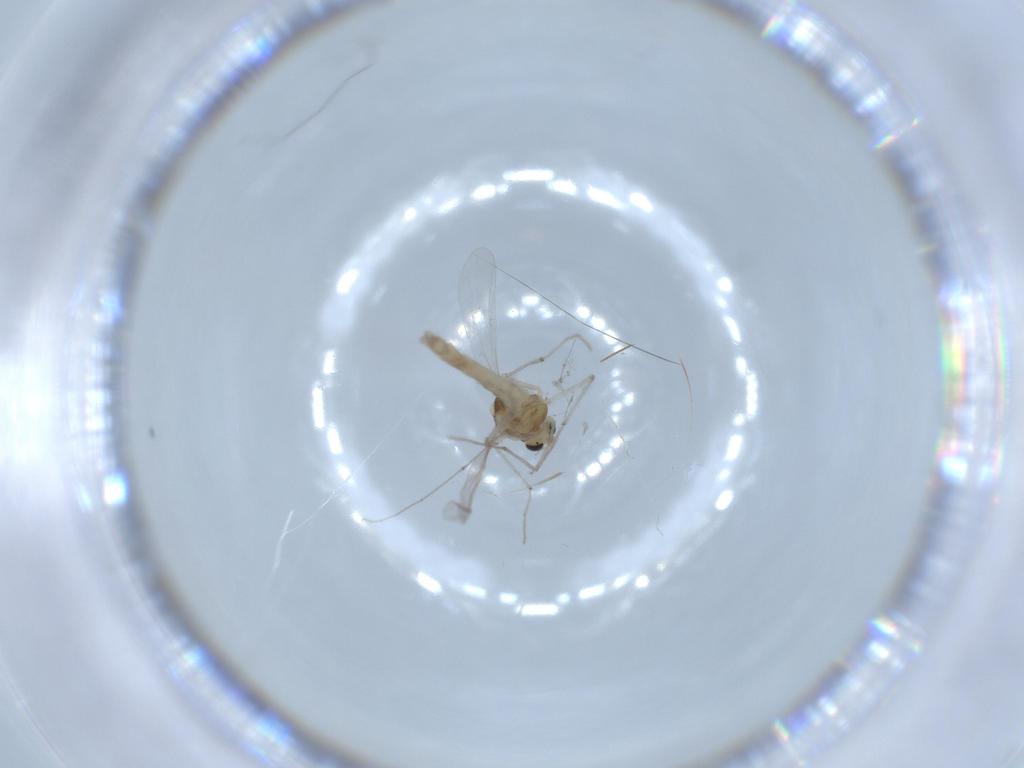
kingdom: Animalia
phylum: Arthropoda
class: Insecta
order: Diptera
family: Chironomidae
